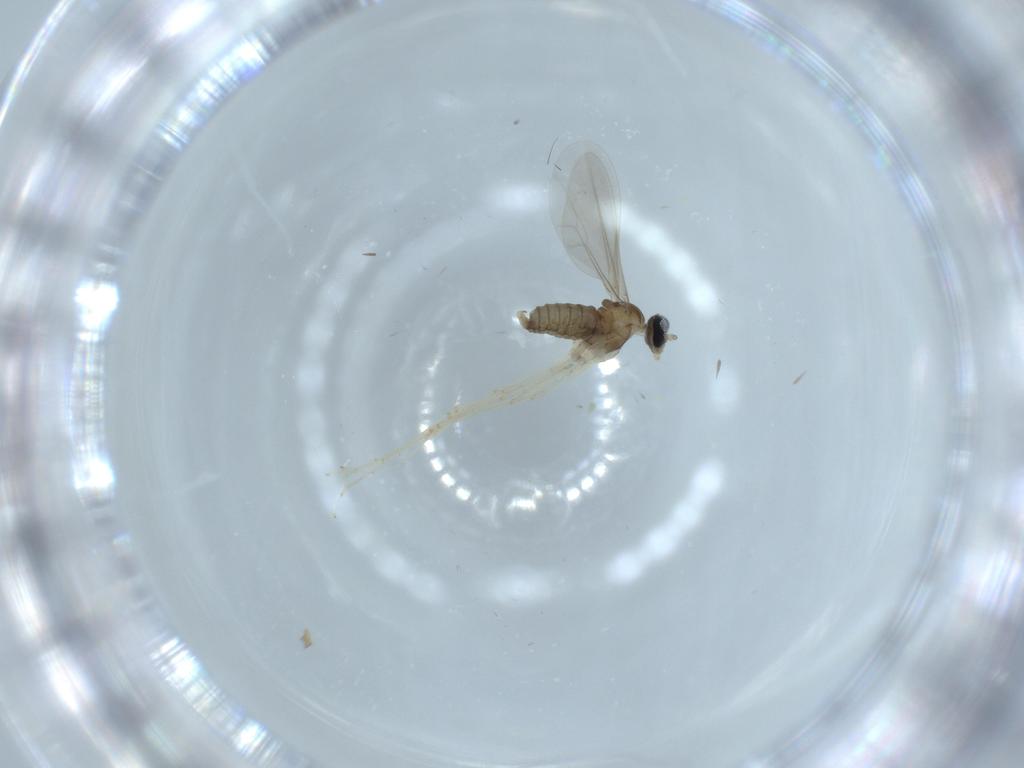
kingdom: Animalia
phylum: Arthropoda
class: Insecta
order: Diptera
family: Cecidomyiidae
